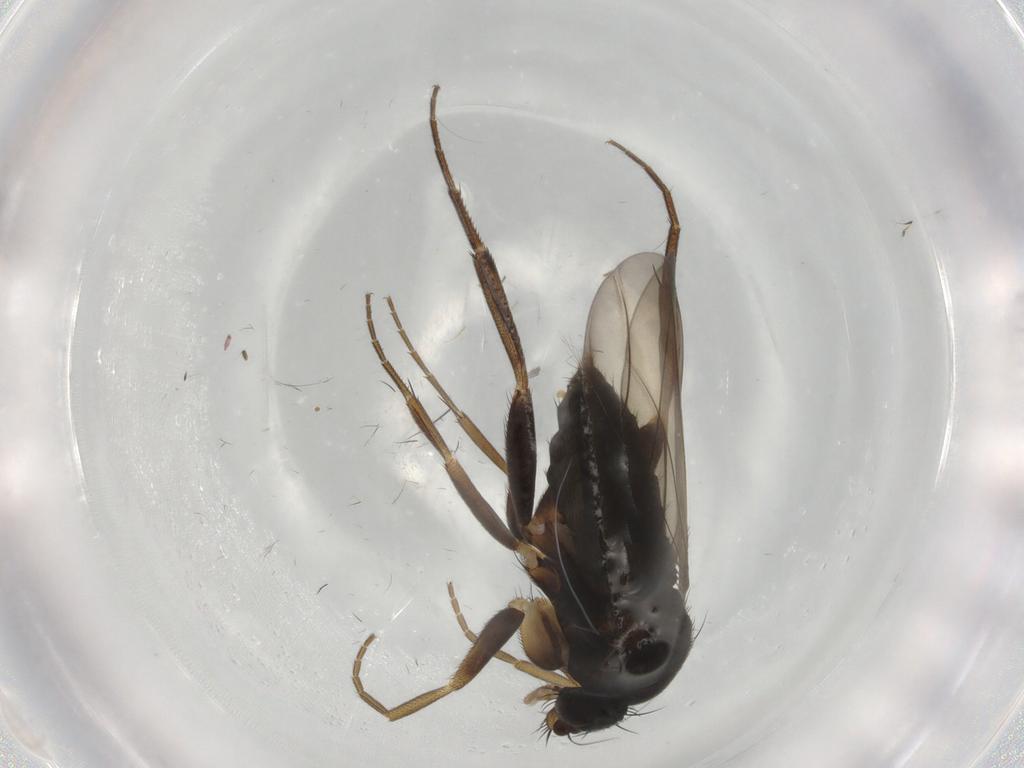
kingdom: Animalia
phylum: Arthropoda
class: Insecta
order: Diptera
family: Phoridae
